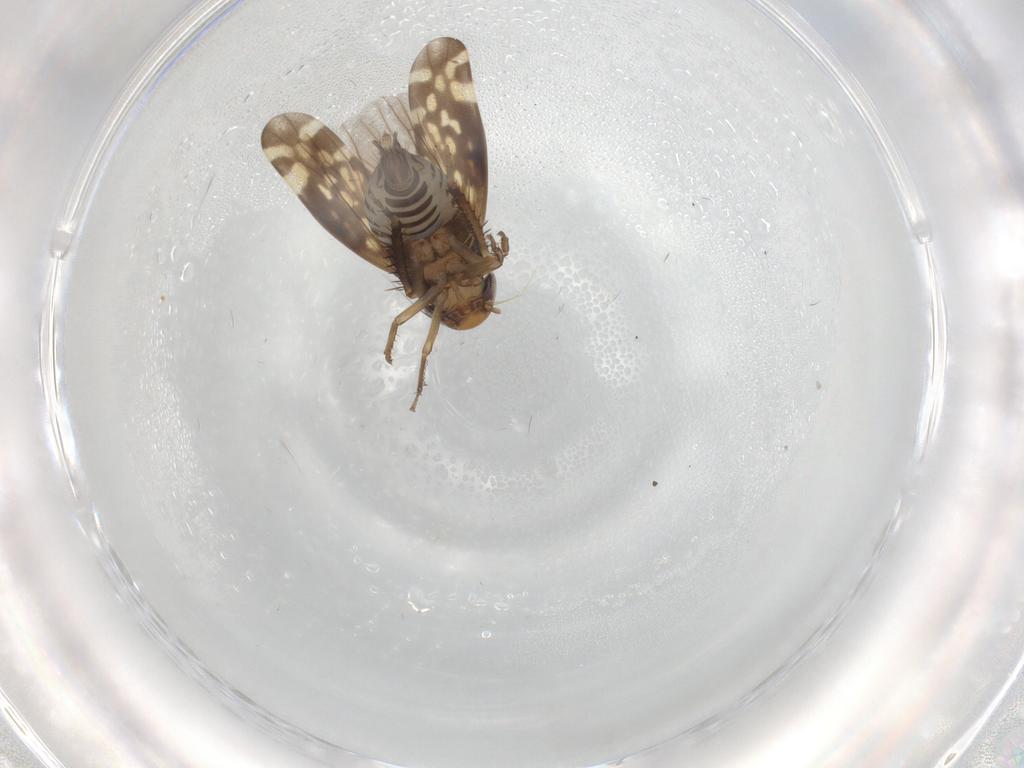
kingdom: Animalia
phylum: Arthropoda
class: Insecta
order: Hemiptera
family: Cicadellidae
